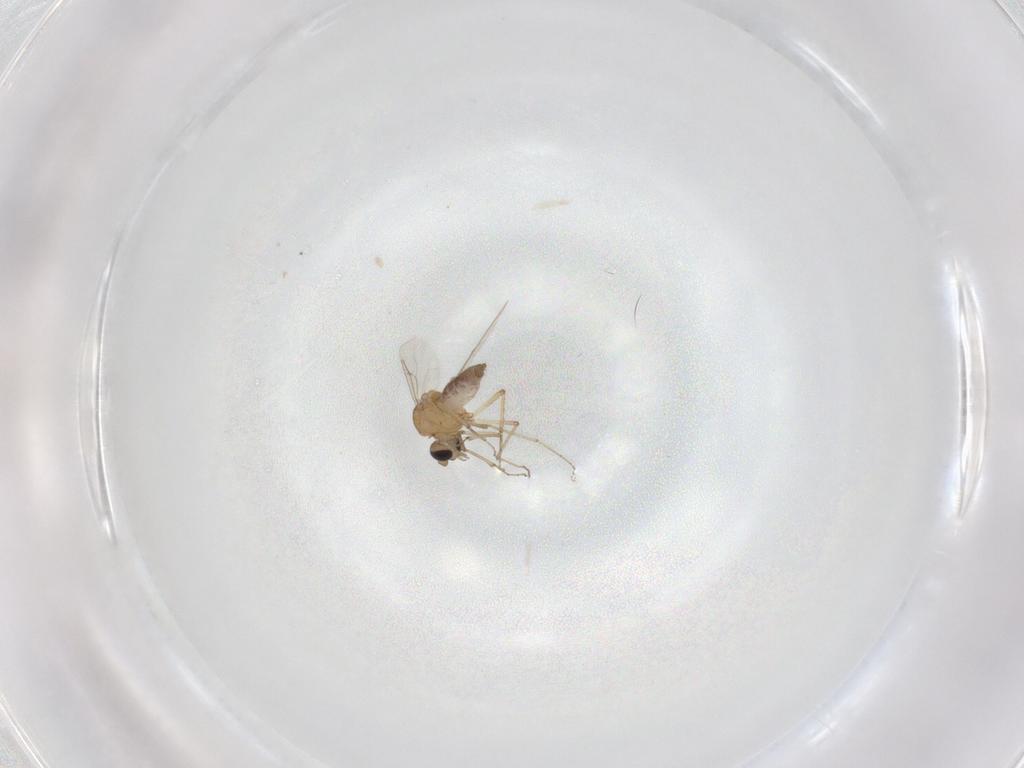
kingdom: Animalia
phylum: Arthropoda
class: Insecta
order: Diptera
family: Ceratopogonidae
